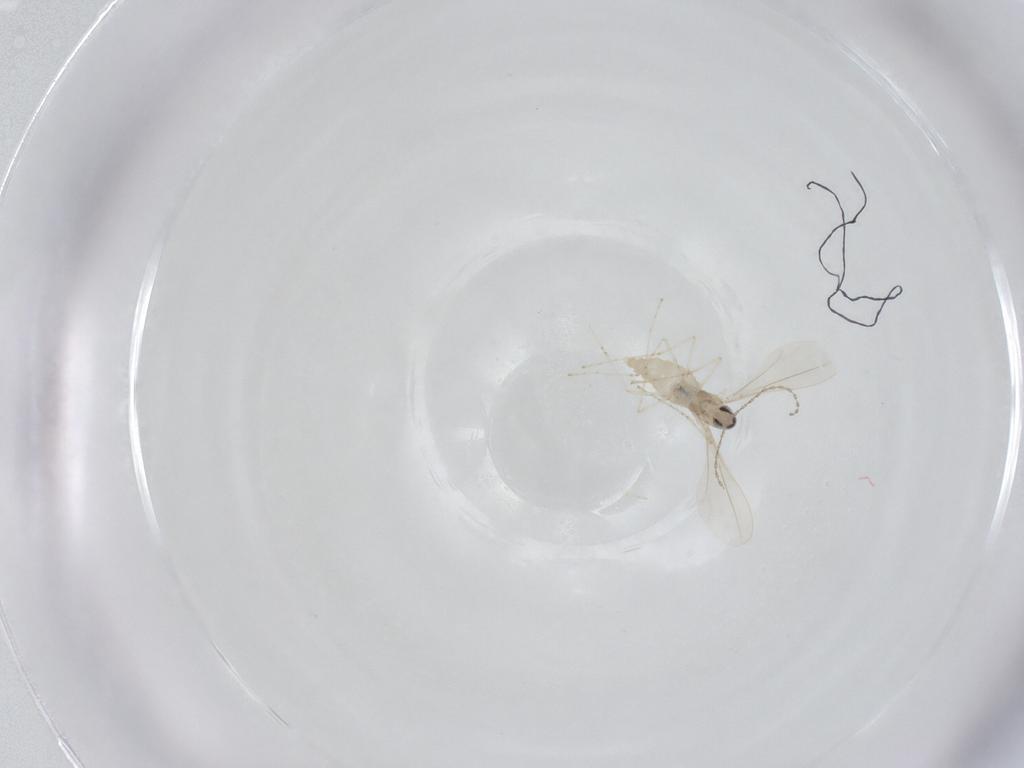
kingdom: Animalia
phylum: Arthropoda
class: Insecta
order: Diptera
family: Cecidomyiidae
